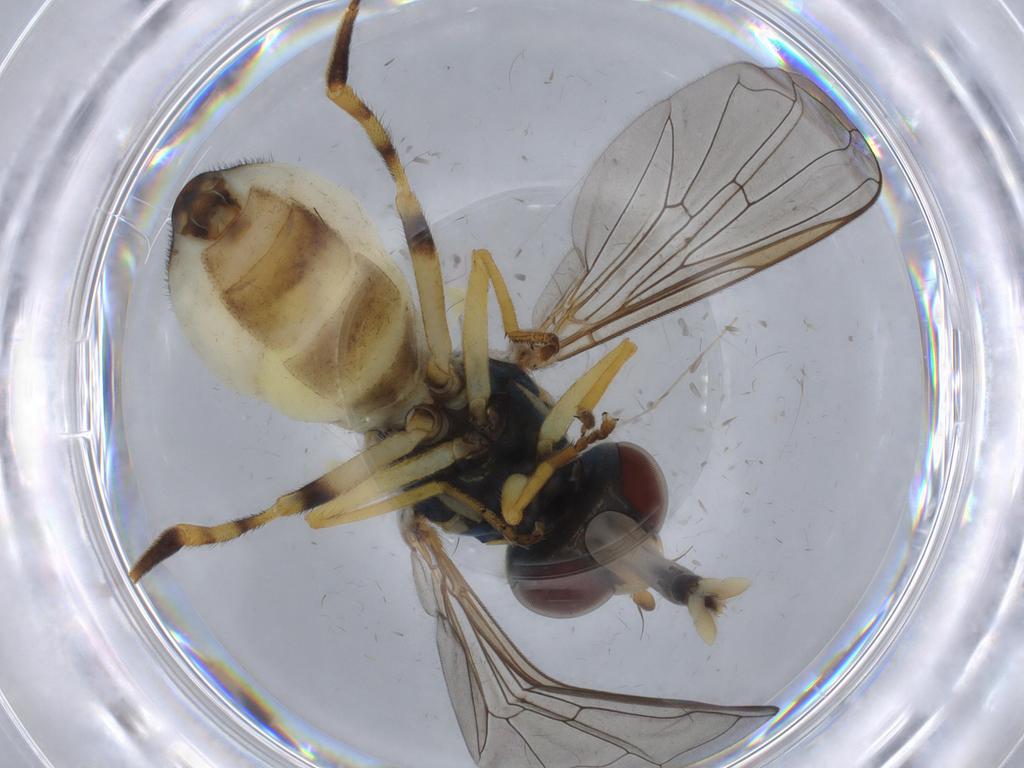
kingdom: Animalia
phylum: Arthropoda
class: Insecta
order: Diptera
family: Syrphidae
